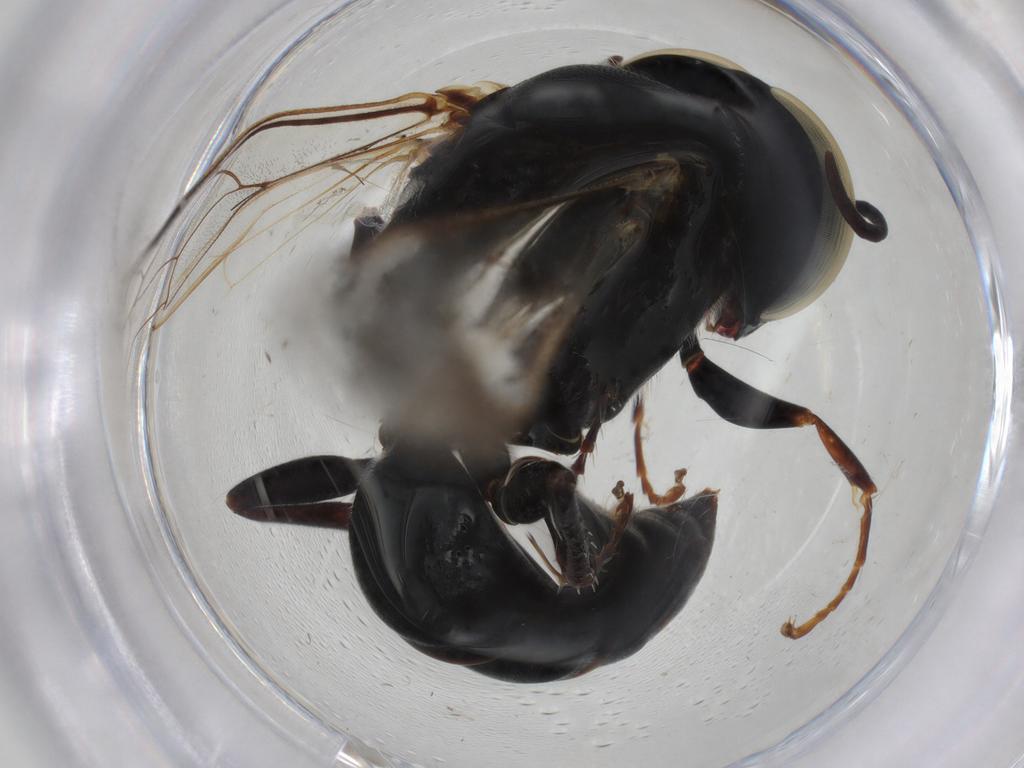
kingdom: Animalia
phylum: Arthropoda
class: Insecta
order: Hymenoptera
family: Crabronidae
